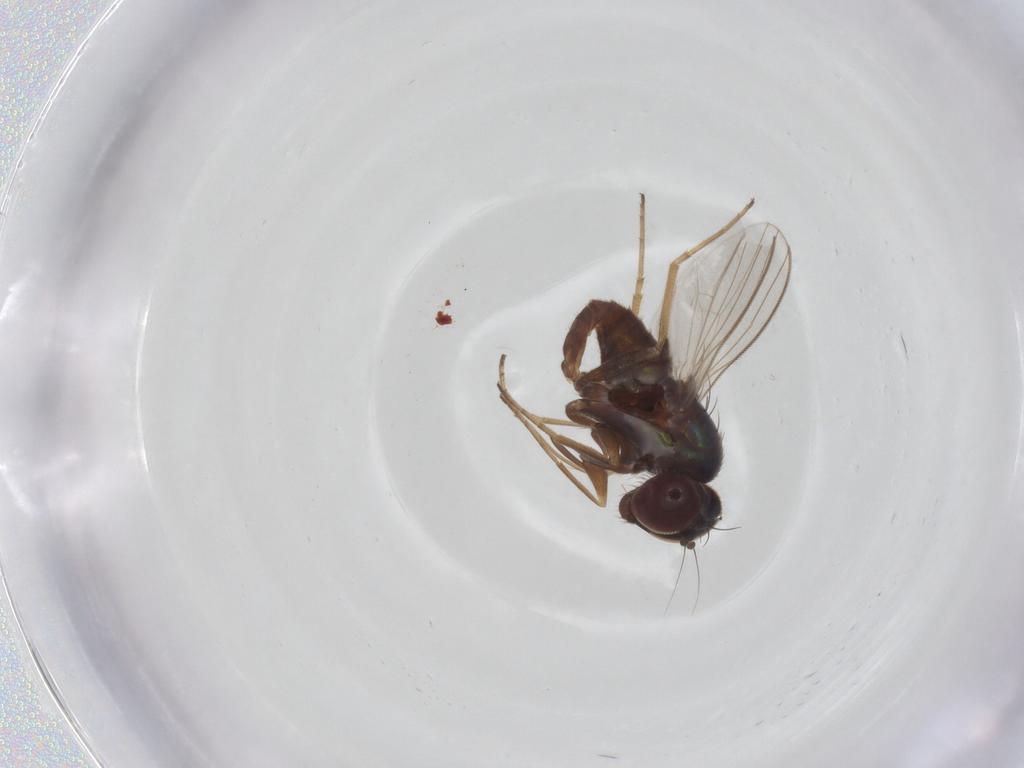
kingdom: Animalia
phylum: Arthropoda
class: Insecta
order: Diptera
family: Dolichopodidae
